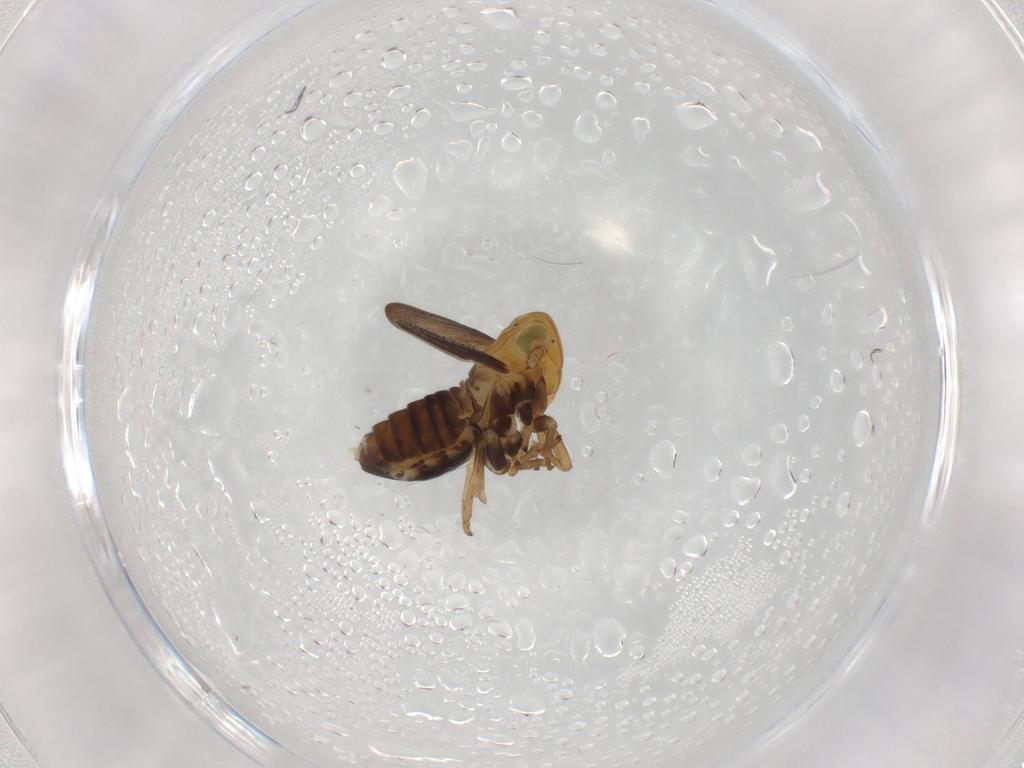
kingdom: Animalia
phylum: Arthropoda
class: Insecta
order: Hemiptera
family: Delphacidae
